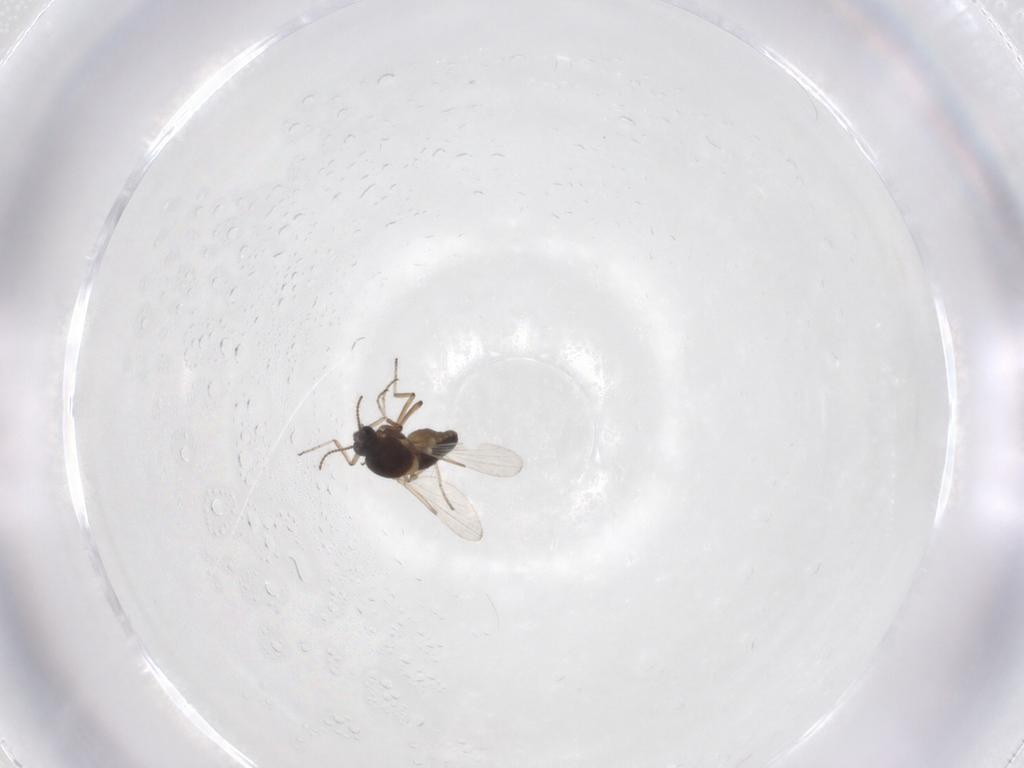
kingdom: Animalia
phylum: Arthropoda
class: Insecta
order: Diptera
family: Ceratopogonidae
